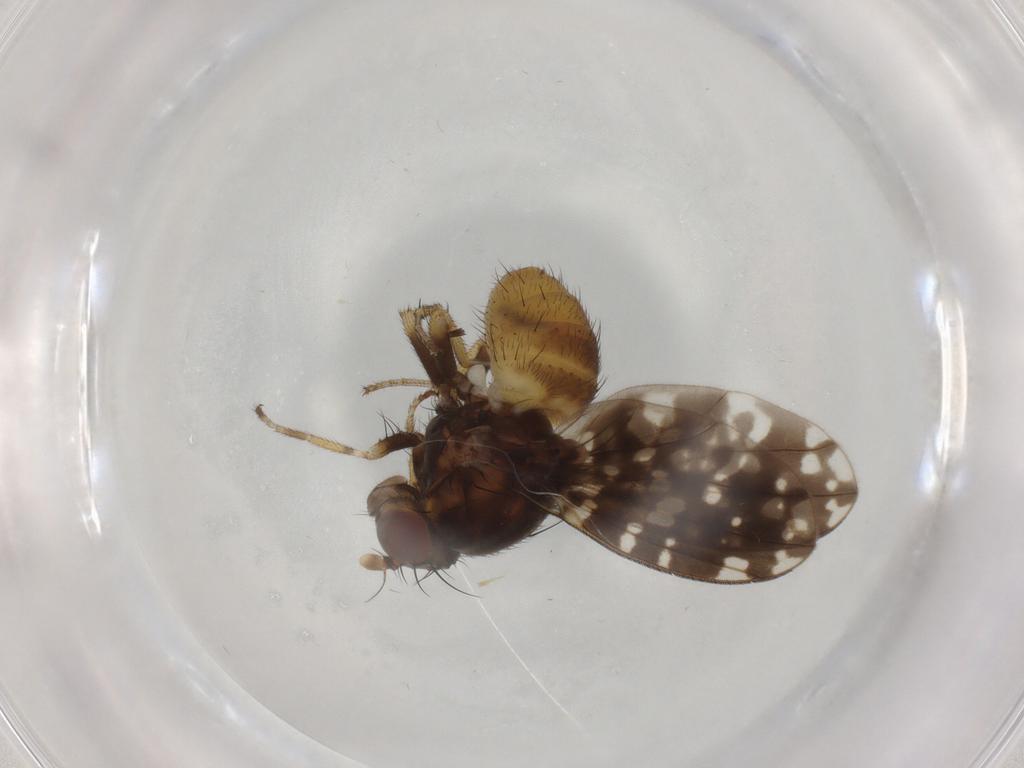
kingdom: Animalia
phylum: Arthropoda
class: Insecta
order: Diptera
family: Tabanidae
